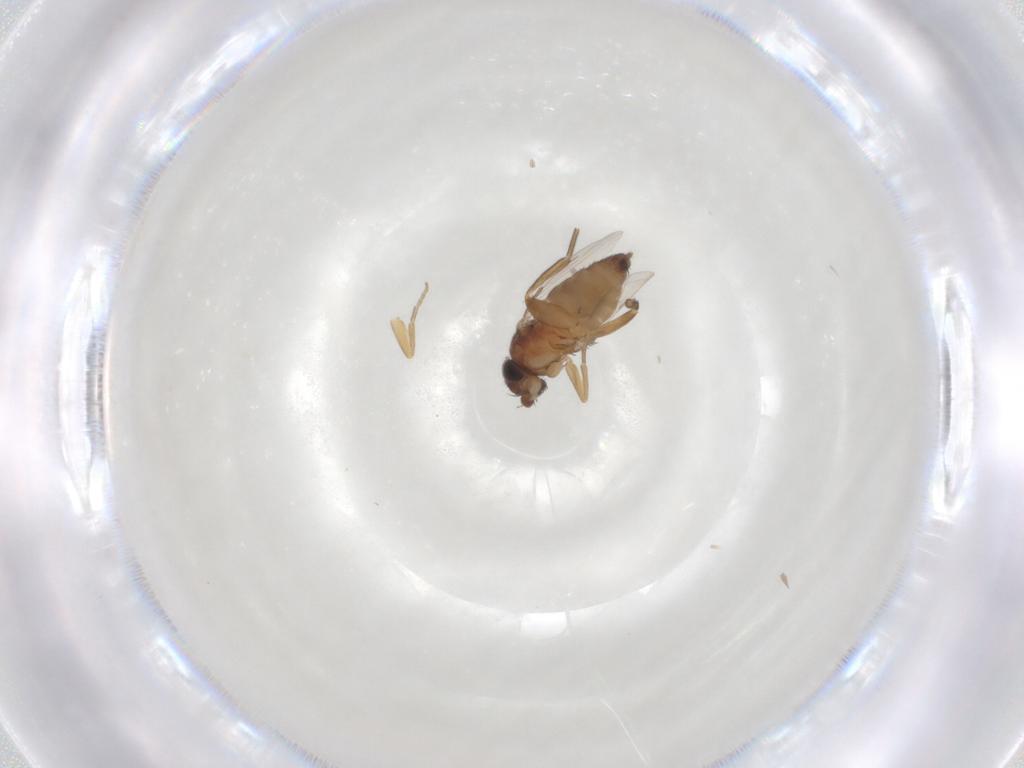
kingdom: Animalia
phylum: Arthropoda
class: Insecta
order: Diptera
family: Phoridae
